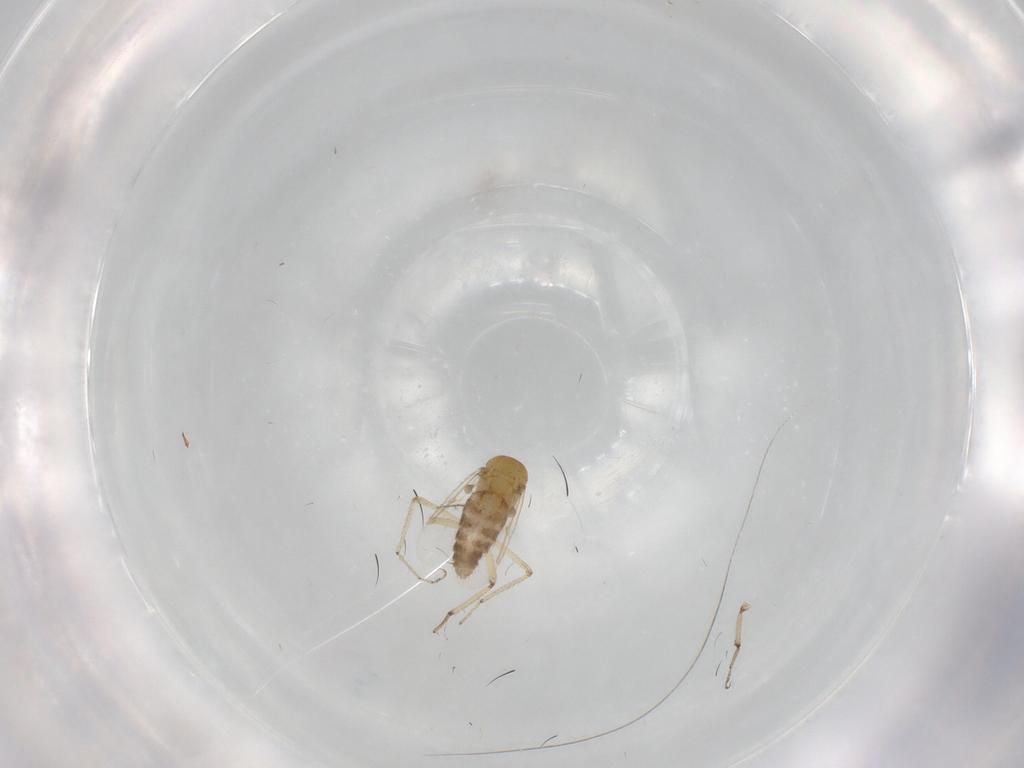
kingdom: Animalia
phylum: Arthropoda
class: Insecta
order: Diptera
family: Ceratopogonidae
